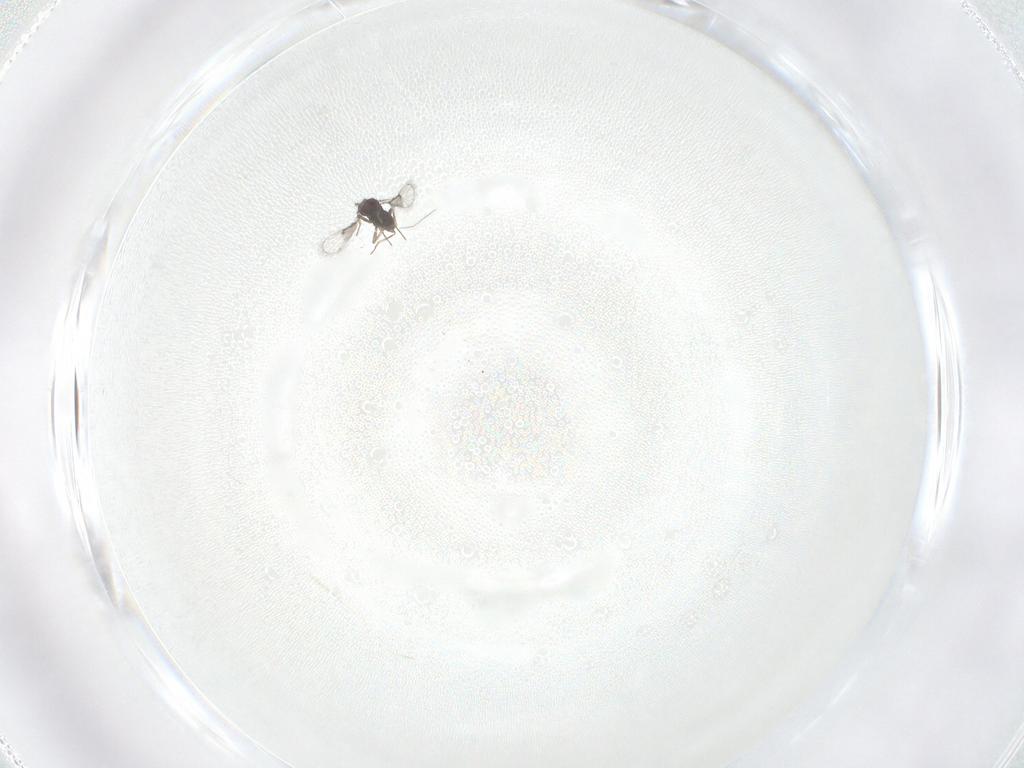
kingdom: Animalia
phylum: Arthropoda
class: Insecta
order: Hymenoptera
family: Trichogrammatidae
